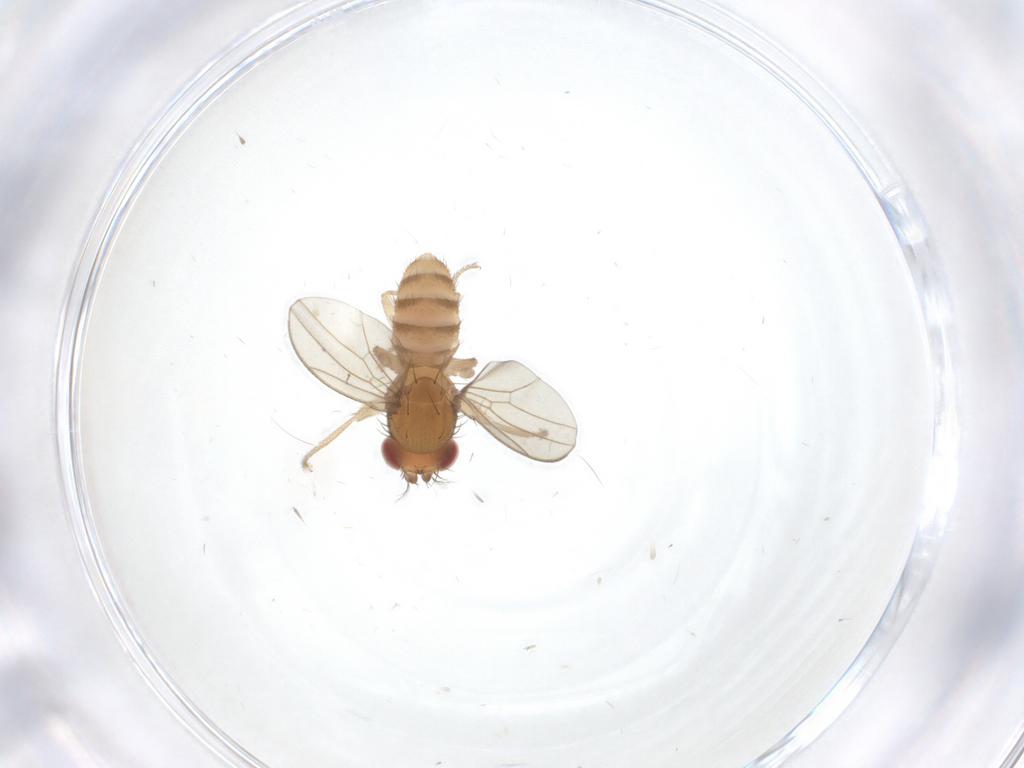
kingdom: Animalia
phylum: Arthropoda
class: Insecta
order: Diptera
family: Drosophilidae
